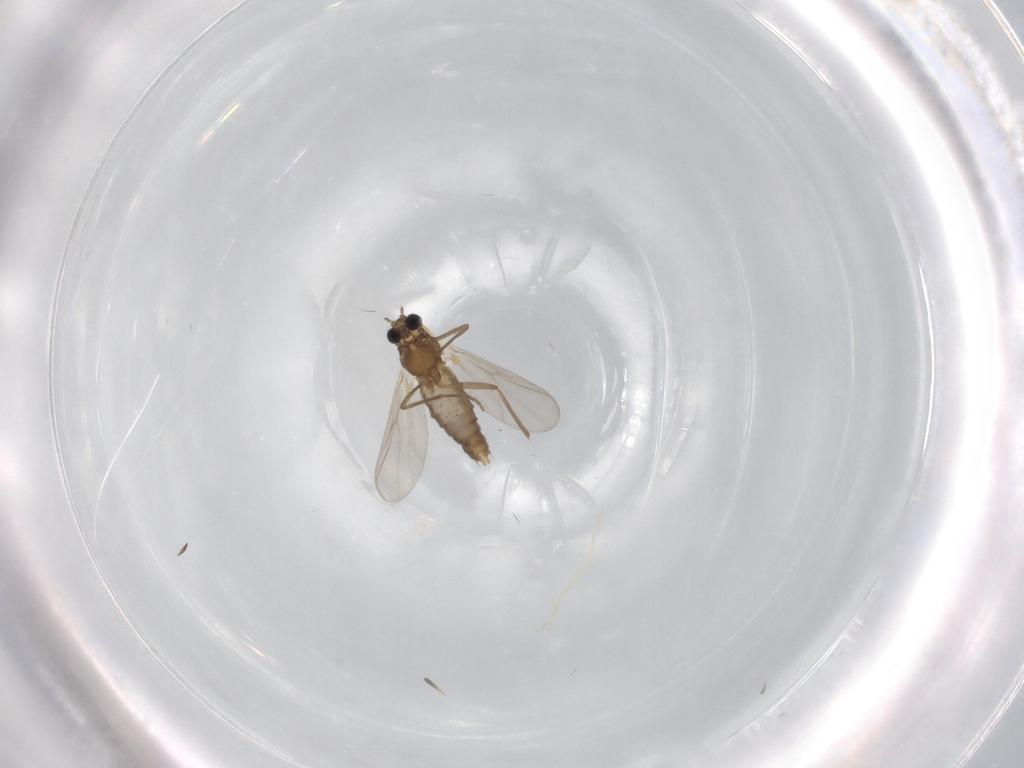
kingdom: Animalia
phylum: Arthropoda
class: Insecta
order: Diptera
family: Chironomidae
